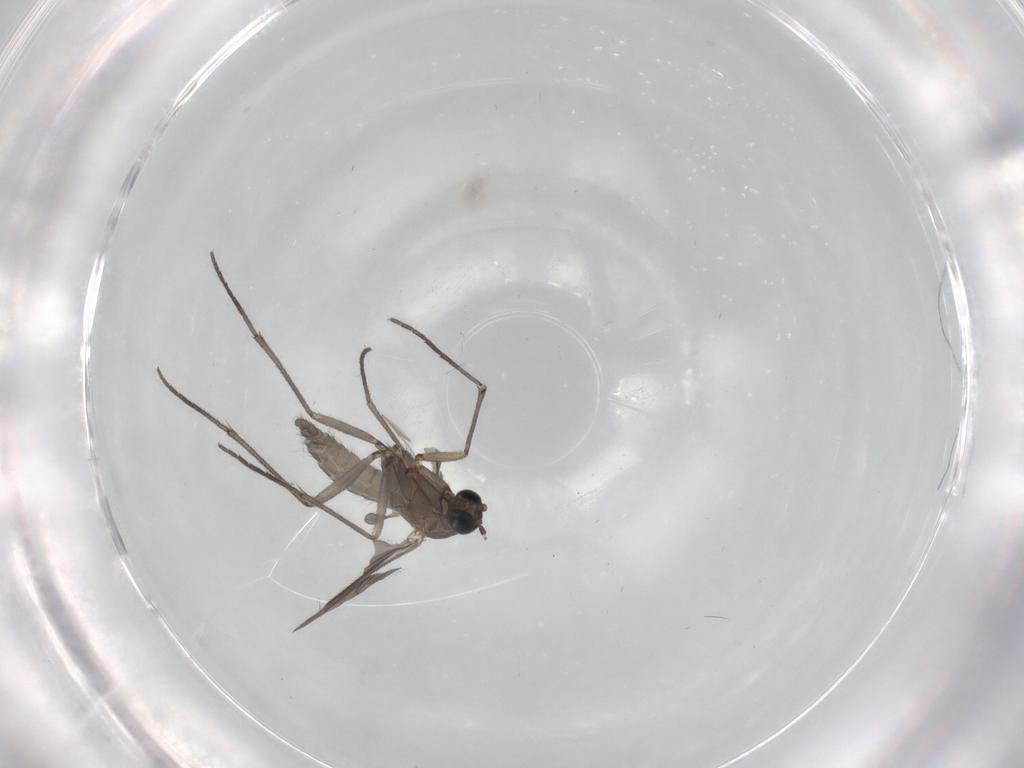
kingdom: Animalia
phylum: Arthropoda
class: Insecta
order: Diptera
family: Sciaridae
